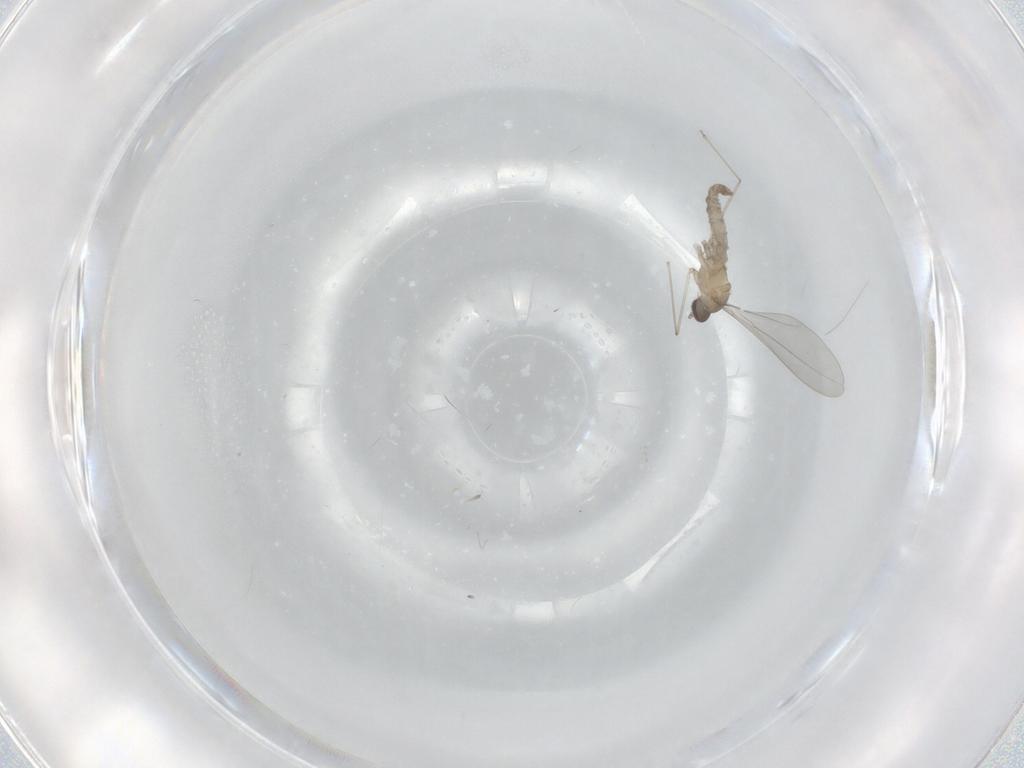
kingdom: Animalia
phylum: Arthropoda
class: Insecta
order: Diptera
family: Cecidomyiidae
